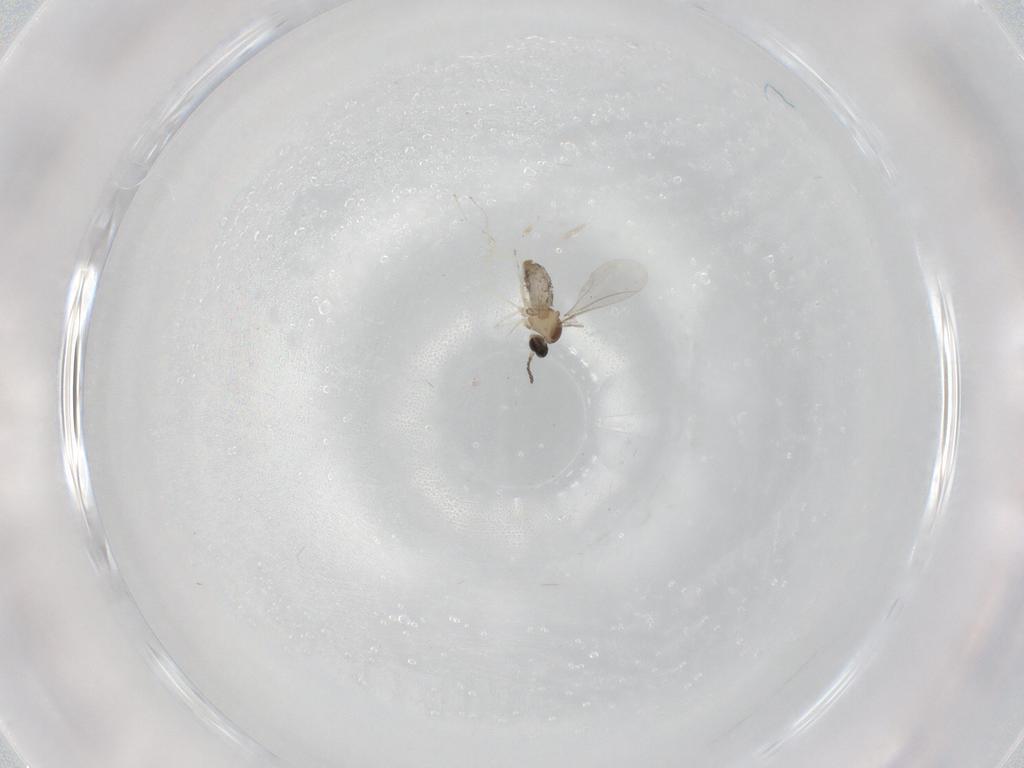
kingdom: Animalia
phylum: Arthropoda
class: Insecta
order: Diptera
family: Cecidomyiidae
